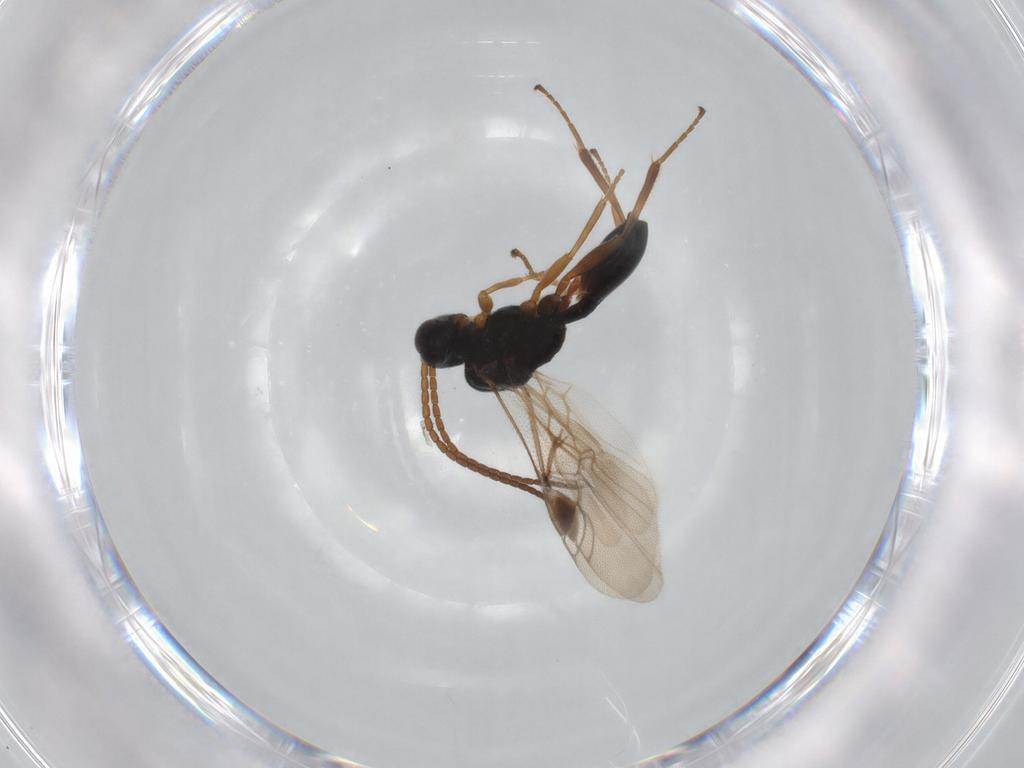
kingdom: Animalia
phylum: Arthropoda
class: Insecta
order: Hymenoptera
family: Braconidae
